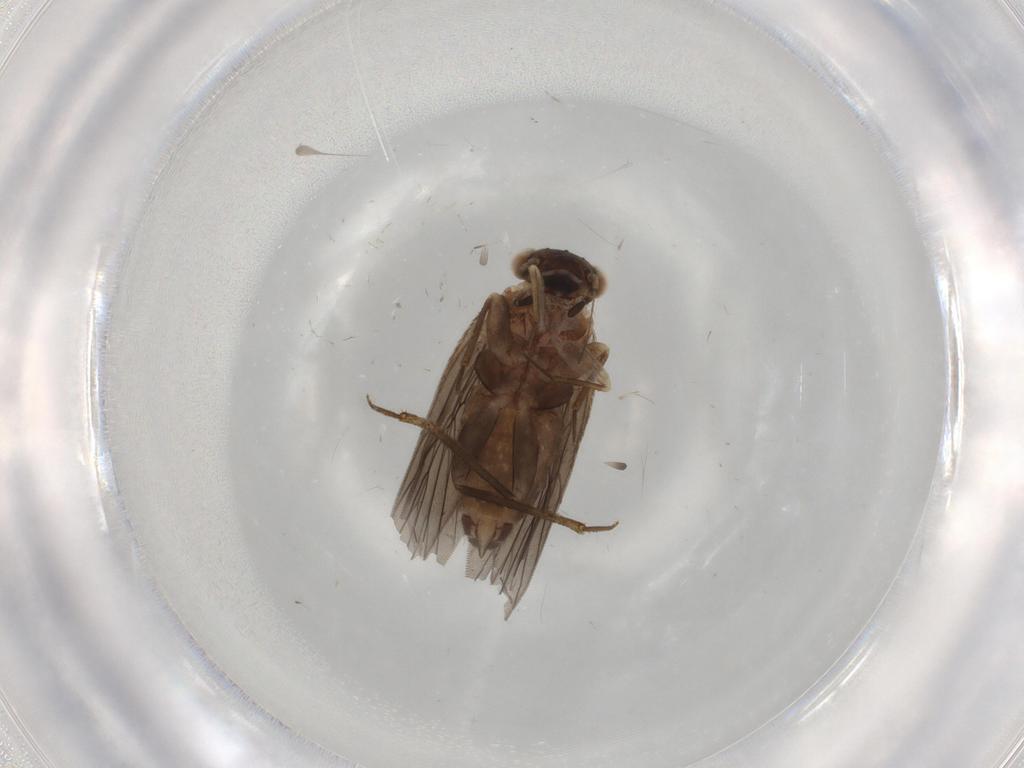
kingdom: Animalia
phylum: Arthropoda
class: Insecta
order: Psocodea
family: Lepidopsocidae
